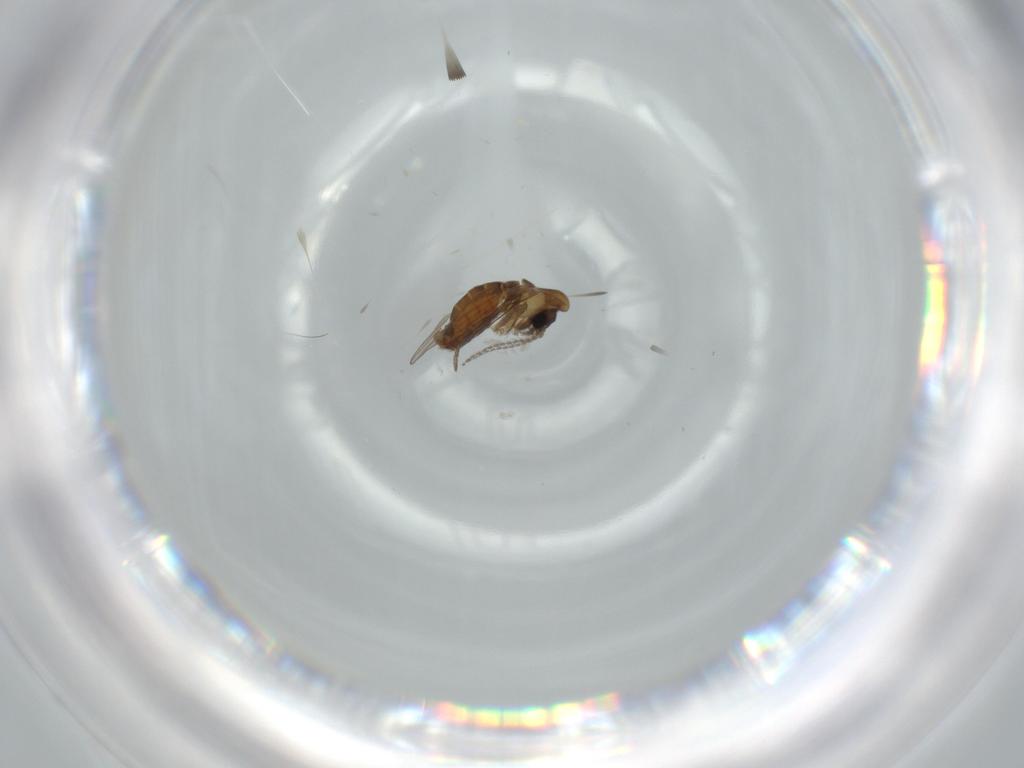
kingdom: Animalia
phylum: Arthropoda
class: Insecta
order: Diptera
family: Psychodidae
